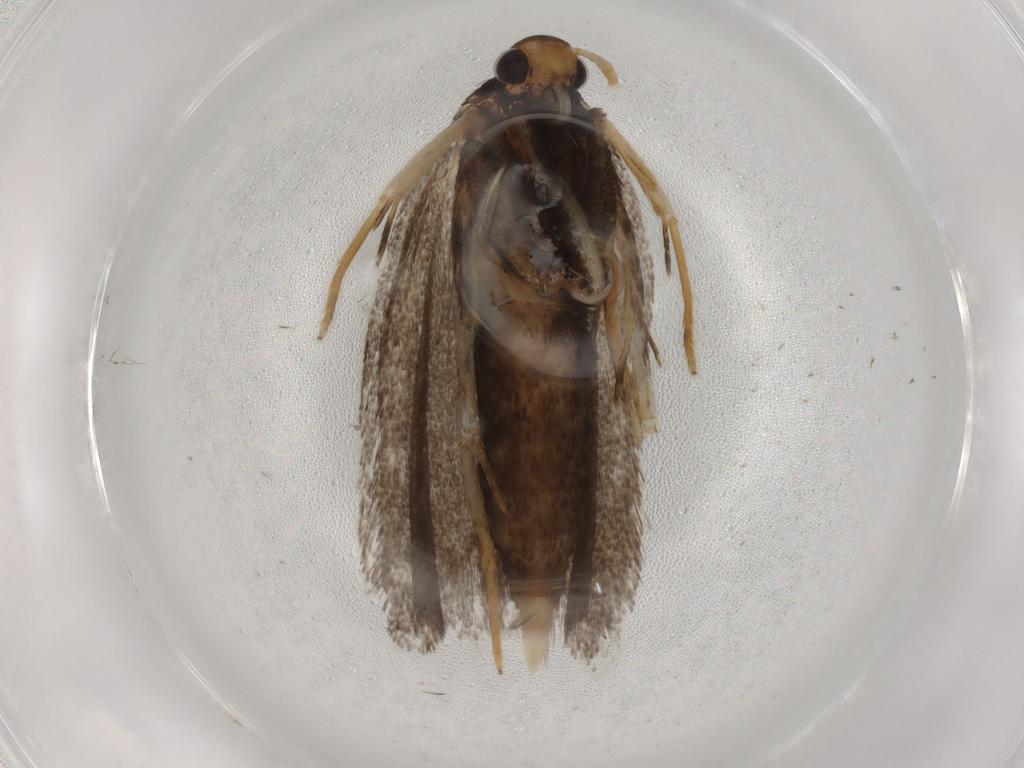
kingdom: Animalia
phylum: Arthropoda
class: Insecta
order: Lepidoptera
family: Lecithoceridae
